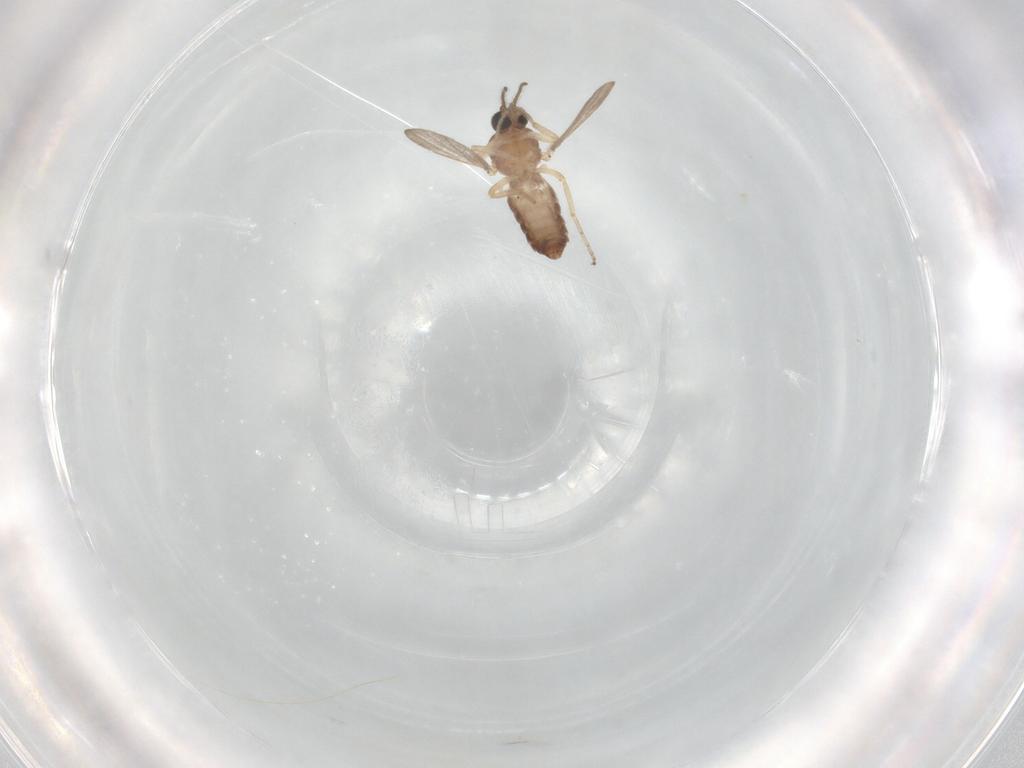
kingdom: Animalia
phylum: Arthropoda
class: Insecta
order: Diptera
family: Ceratopogonidae
